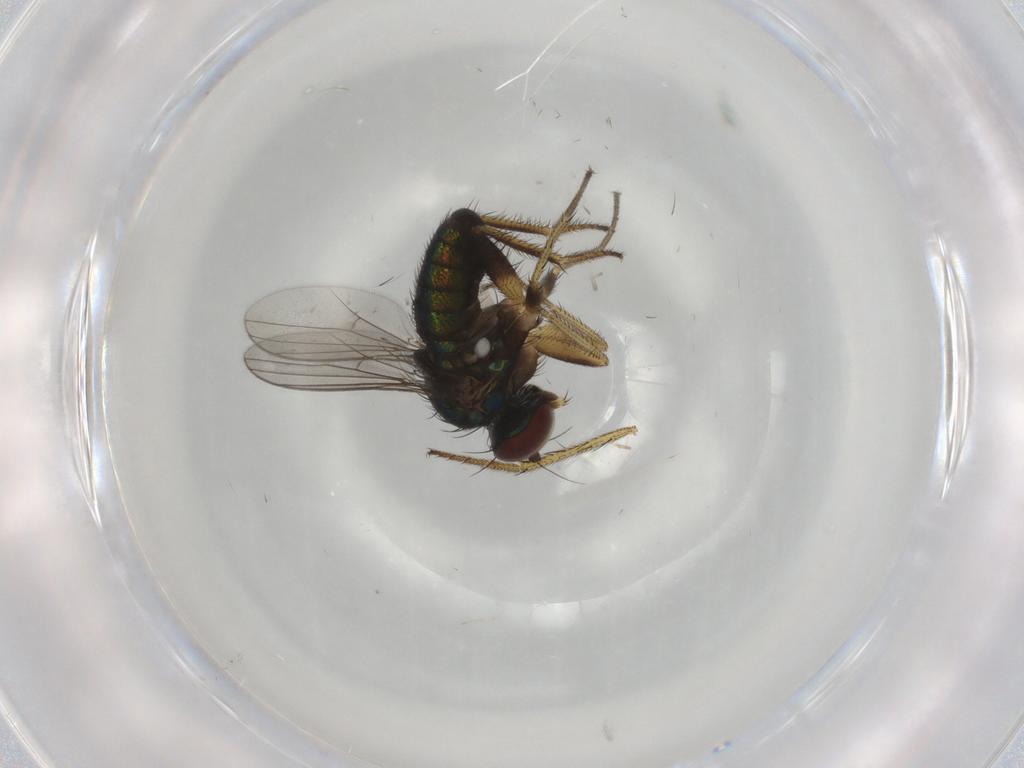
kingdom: Animalia
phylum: Arthropoda
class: Insecta
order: Diptera
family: Dolichopodidae
